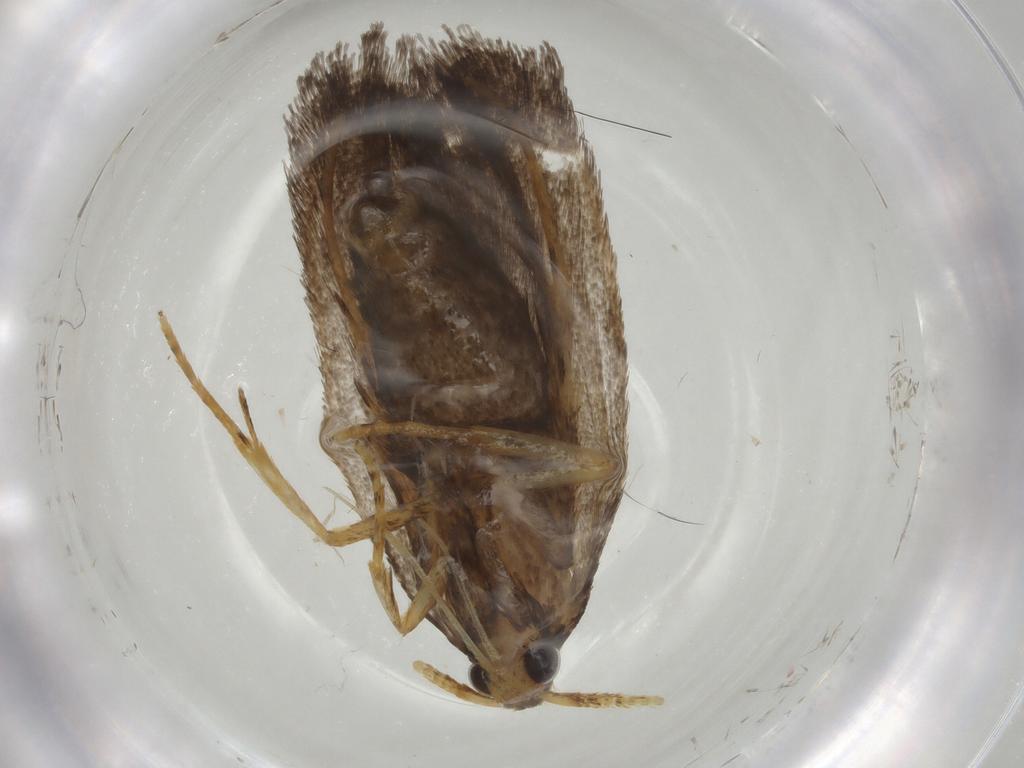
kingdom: Animalia
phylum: Arthropoda
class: Insecta
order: Lepidoptera
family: Lecithoceridae
